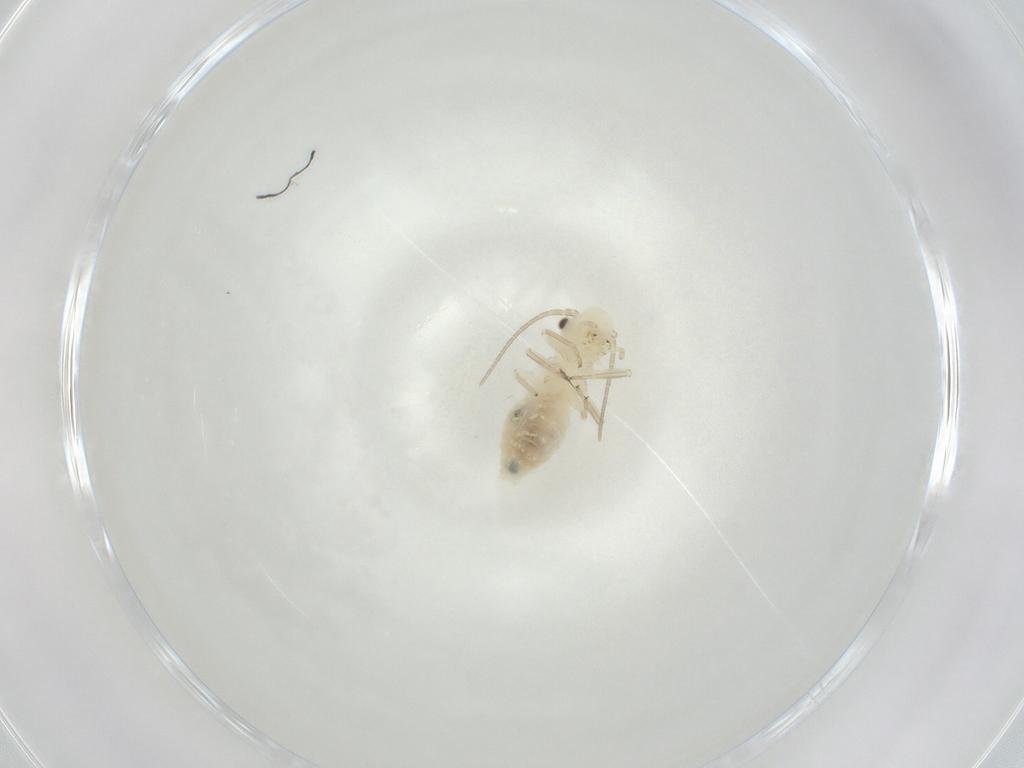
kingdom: Animalia
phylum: Arthropoda
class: Insecta
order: Psocodea
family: Caeciliusidae
